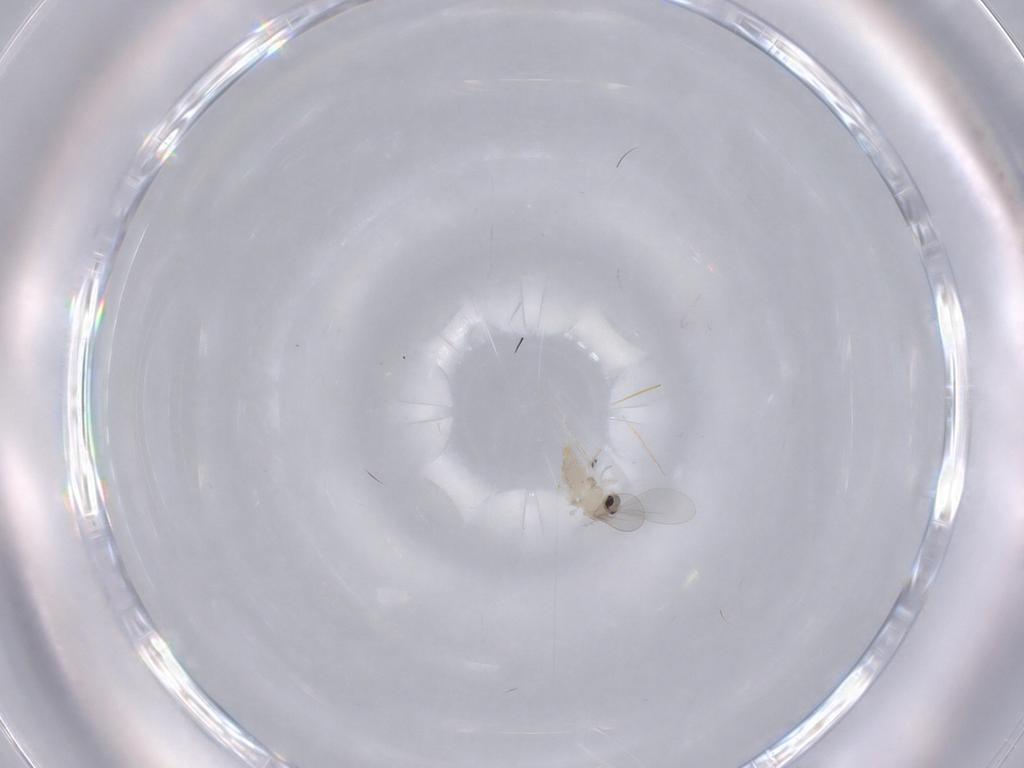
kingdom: Animalia
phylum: Arthropoda
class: Insecta
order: Diptera
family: Cecidomyiidae
